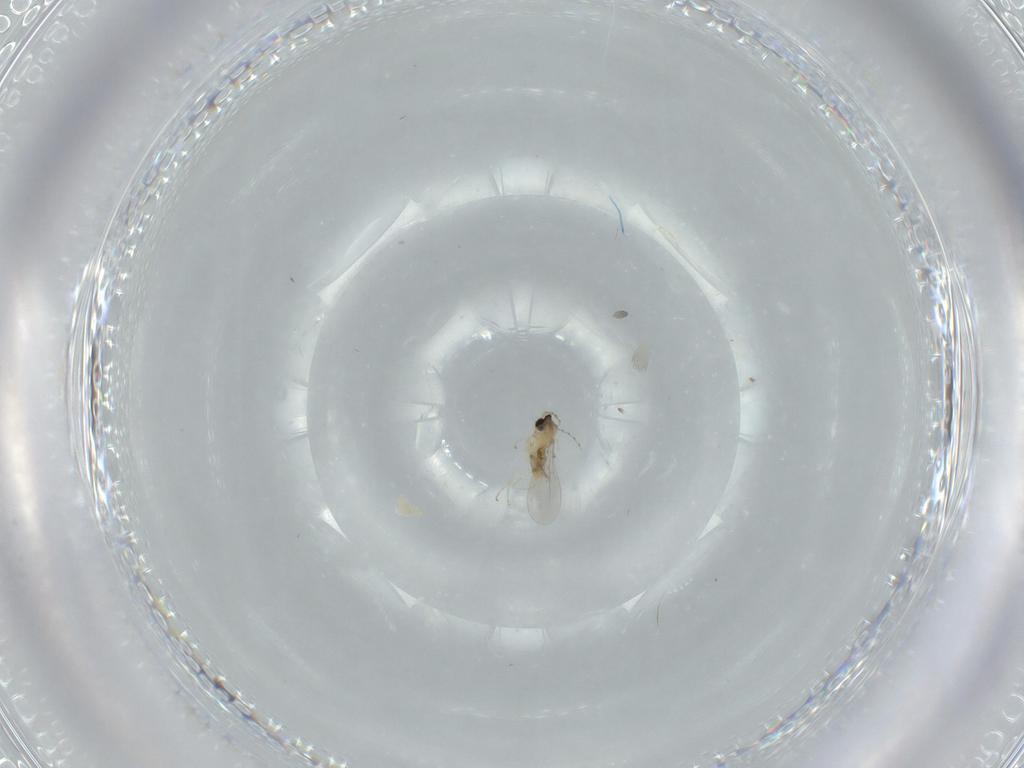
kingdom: Animalia
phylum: Arthropoda
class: Insecta
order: Diptera
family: Cecidomyiidae
